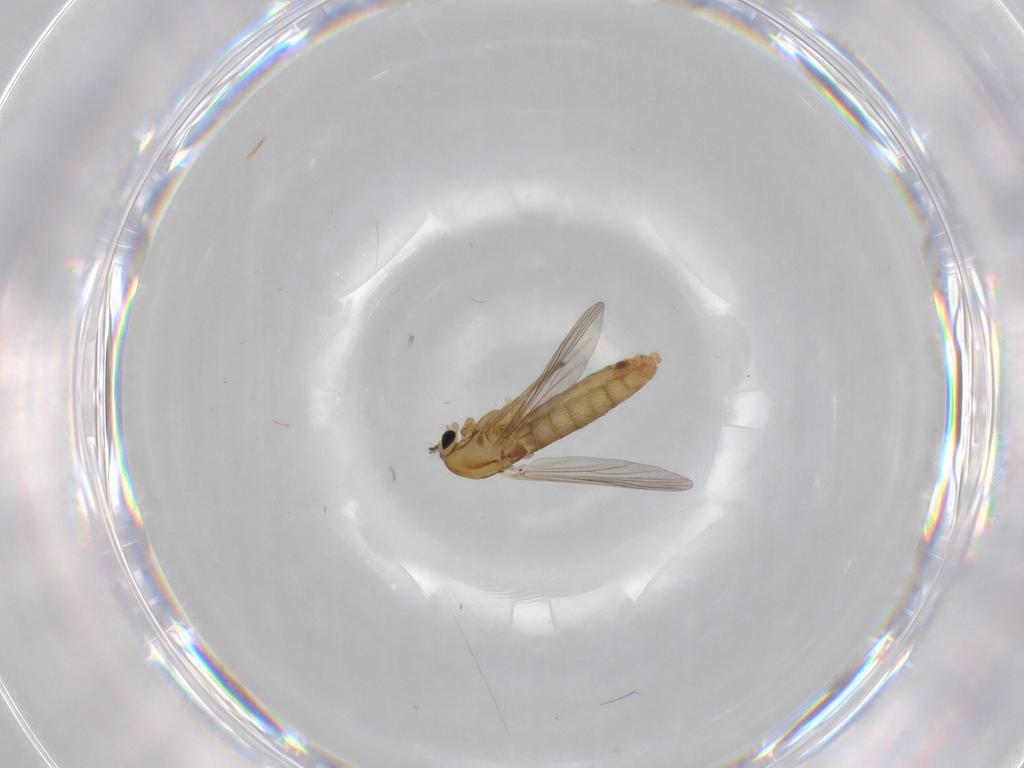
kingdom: Animalia
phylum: Arthropoda
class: Insecta
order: Diptera
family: Chironomidae
